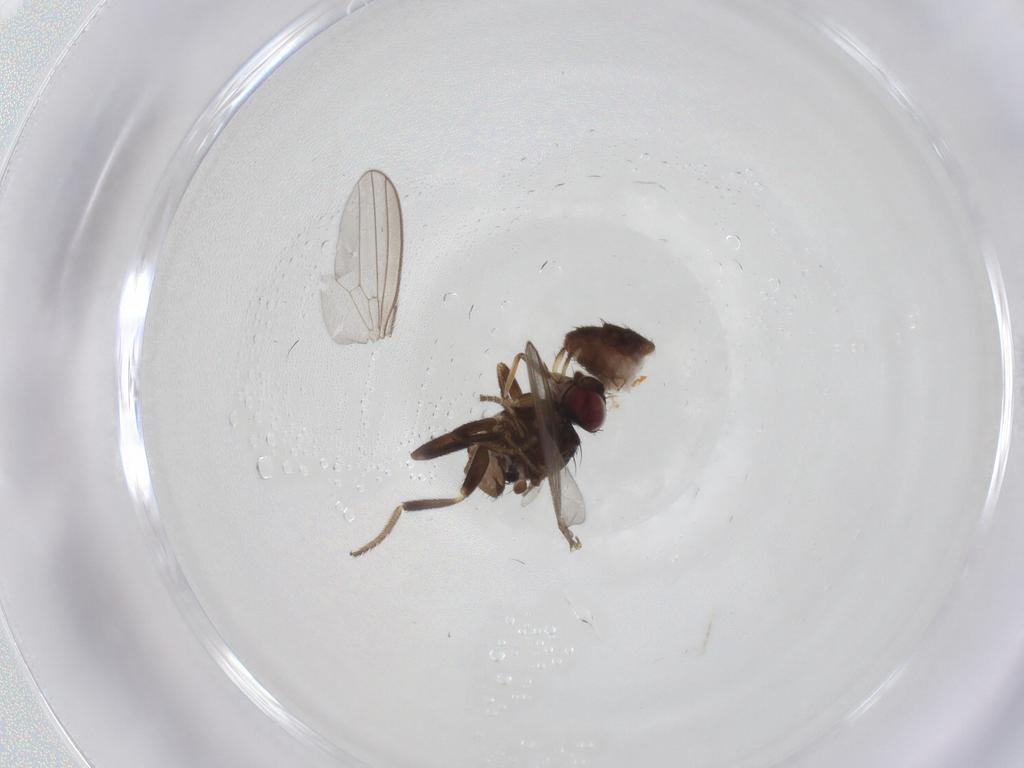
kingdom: Animalia
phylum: Arthropoda
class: Insecta
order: Diptera
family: Milichiidae
